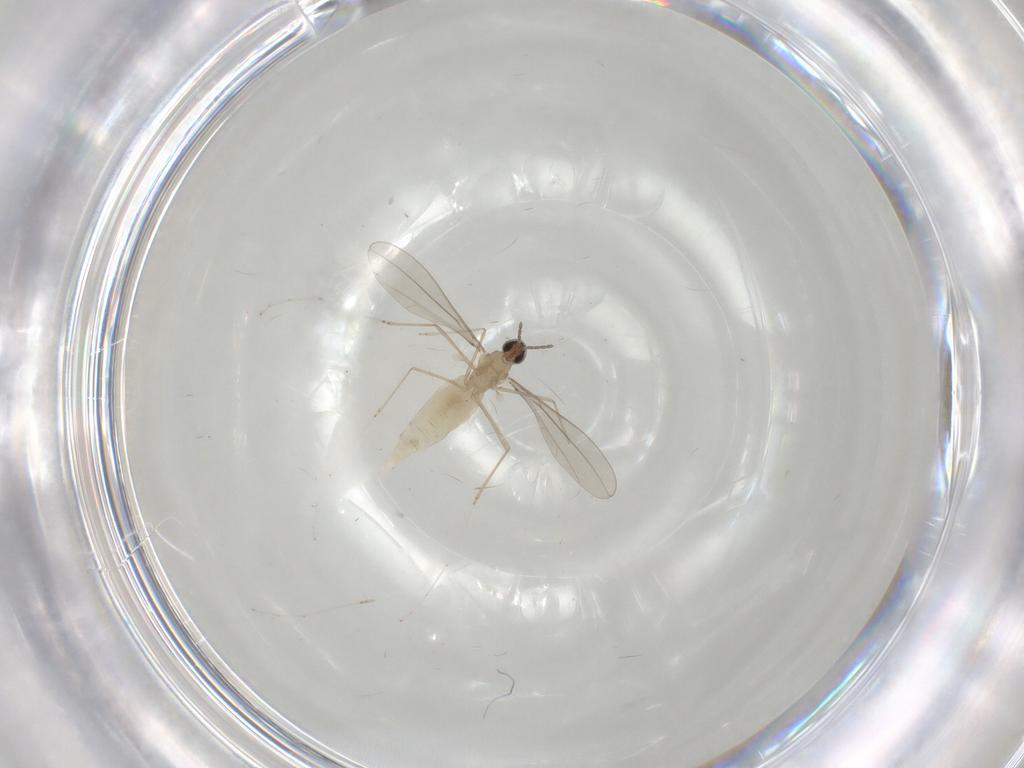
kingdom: Animalia
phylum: Arthropoda
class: Insecta
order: Diptera
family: Cecidomyiidae
